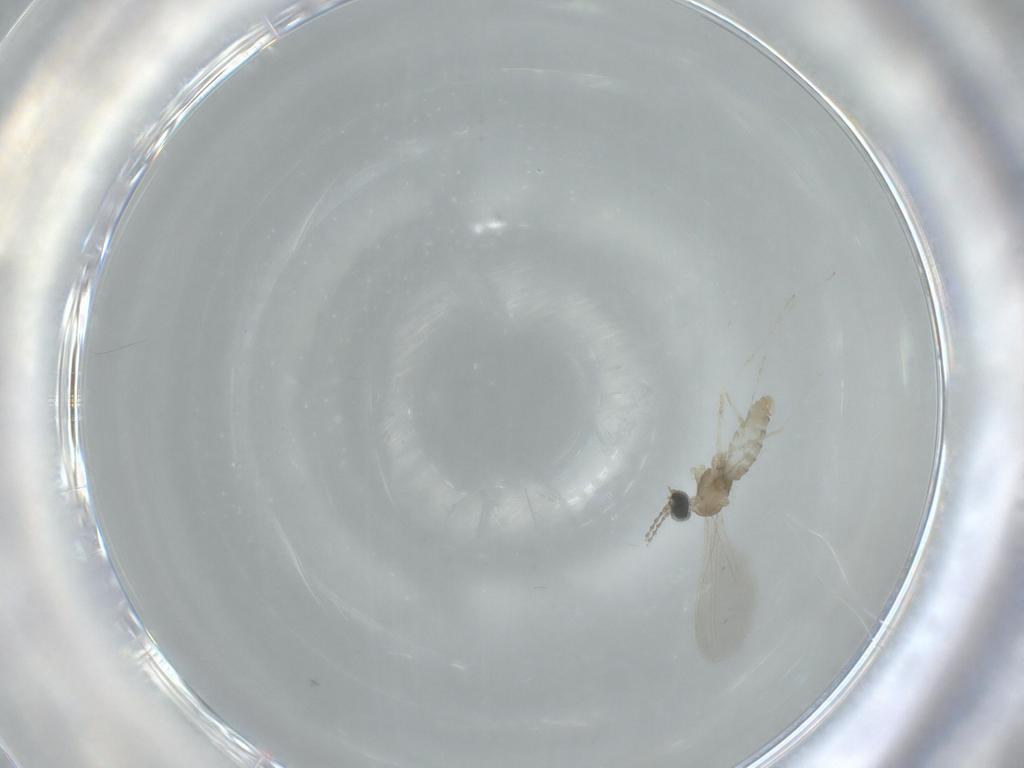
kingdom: Animalia
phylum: Arthropoda
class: Insecta
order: Diptera
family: Cecidomyiidae
